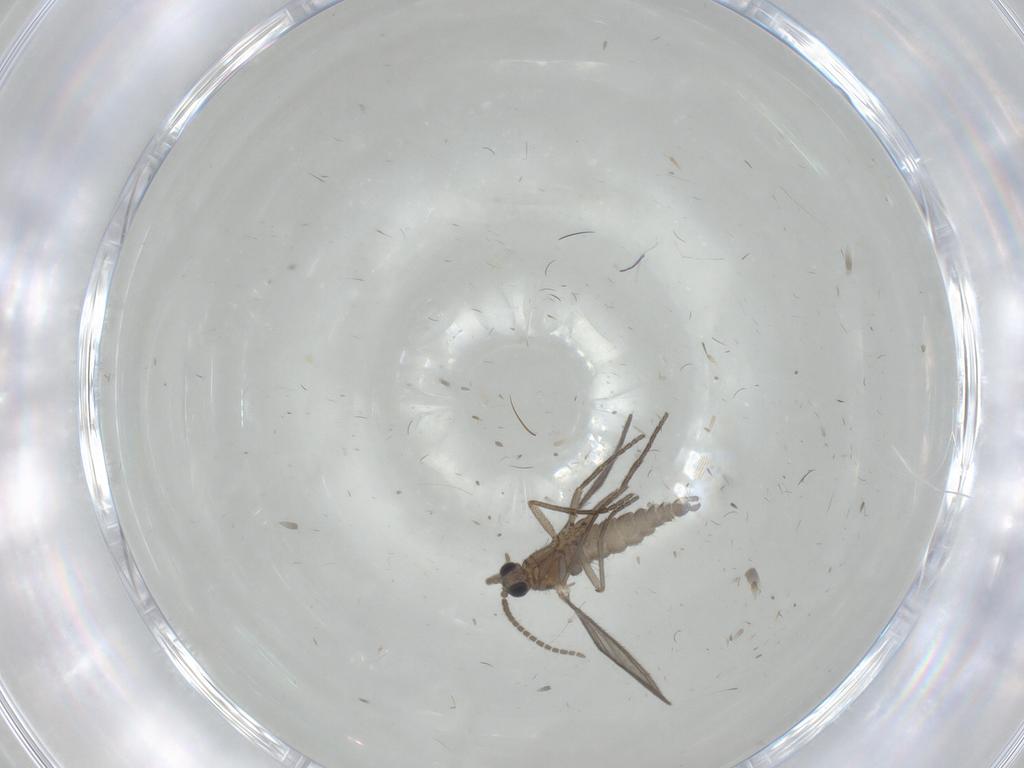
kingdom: Animalia
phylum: Arthropoda
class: Insecta
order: Diptera
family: Sciaridae
